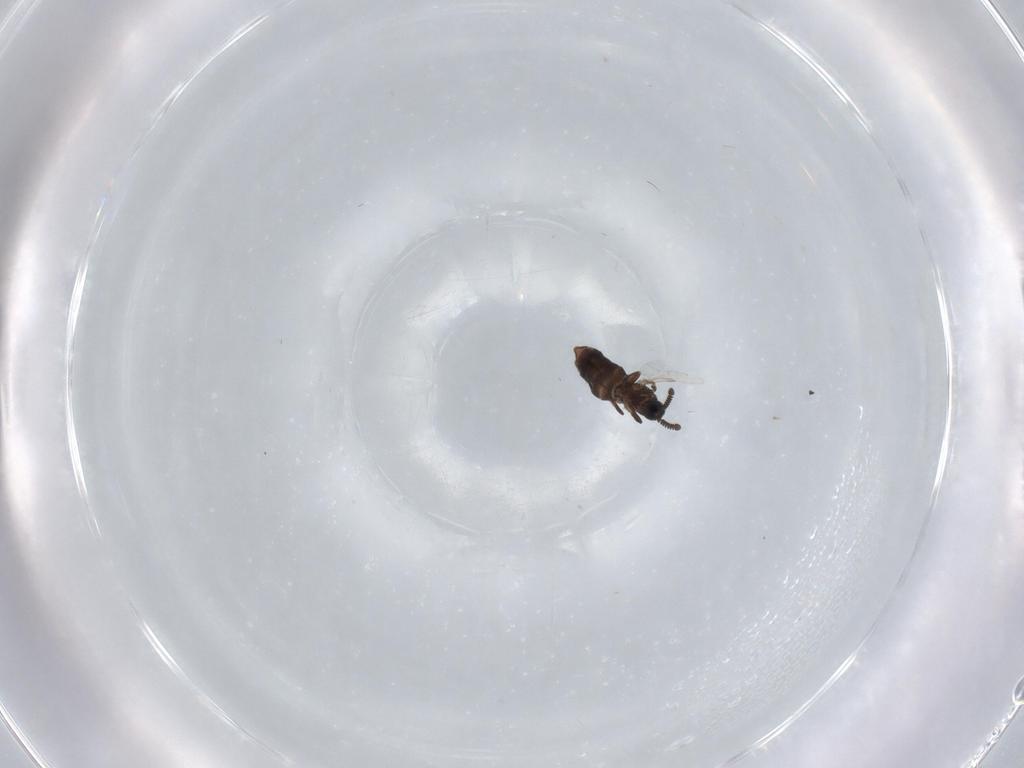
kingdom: Animalia
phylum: Arthropoda
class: Insecta
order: Diptera
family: Scatopsidae
